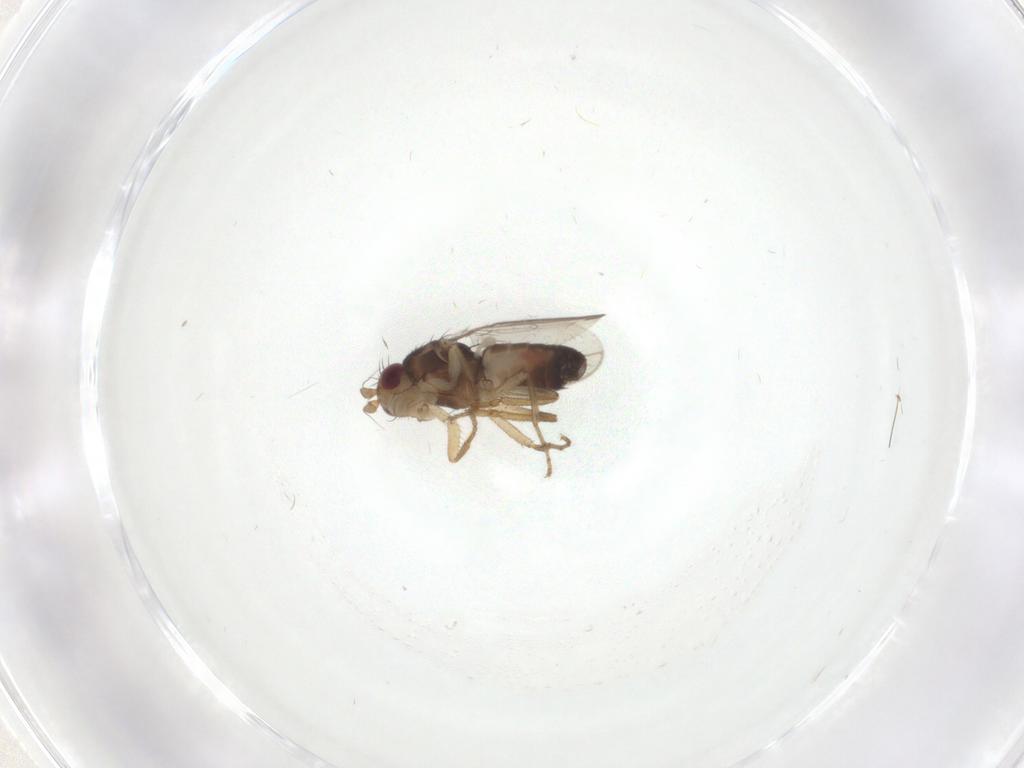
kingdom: Animalia
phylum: Arthropoda
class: Insecta
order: Diptera
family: Sphaeroceridae
